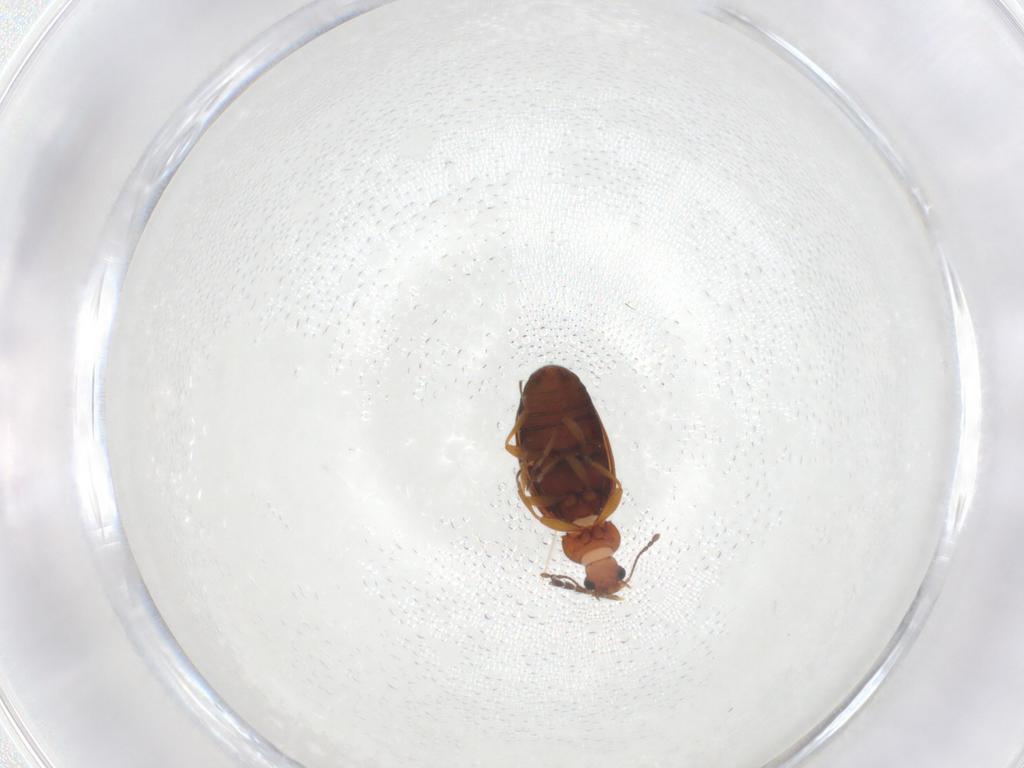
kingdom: Animalia
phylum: Arthropoda
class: Insecta
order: Coleoptera
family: Latridiidae
